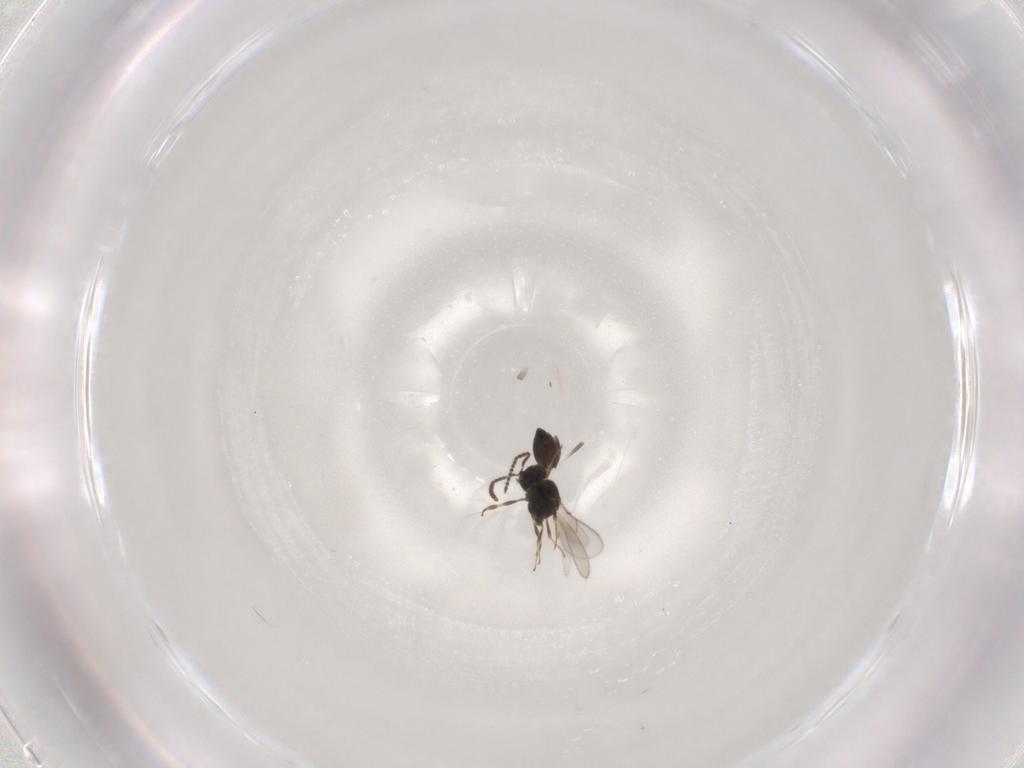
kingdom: Animalia
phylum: Arthropoda
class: Insecta
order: Hymenoptera
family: Scelionidae
